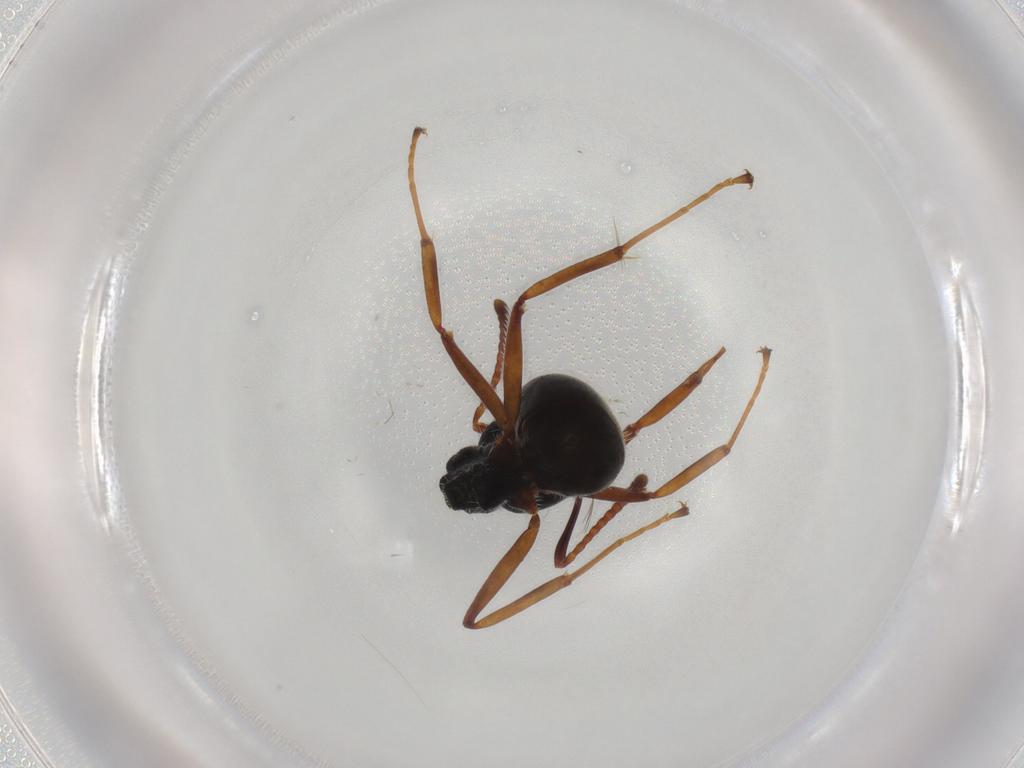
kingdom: Animalia
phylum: Arthropoda
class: Insecta
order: Hymenoptera
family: Formicidae
